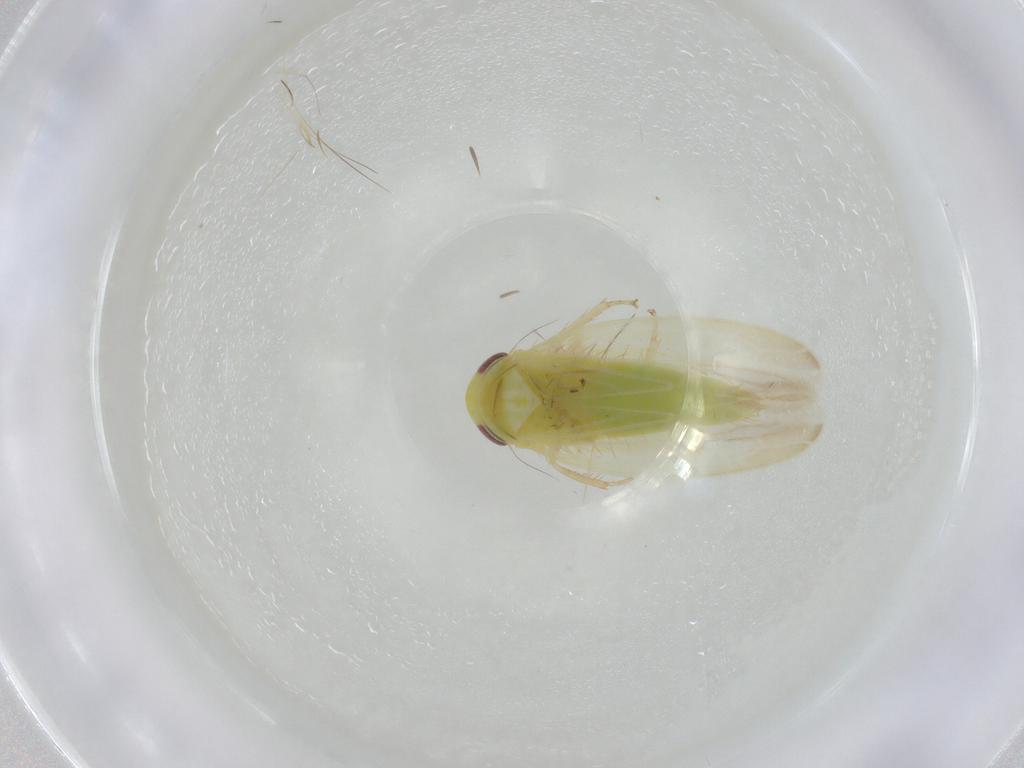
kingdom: Animalia
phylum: Arthropoda
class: Insecta
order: Hemiptera
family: Cicadellidae
